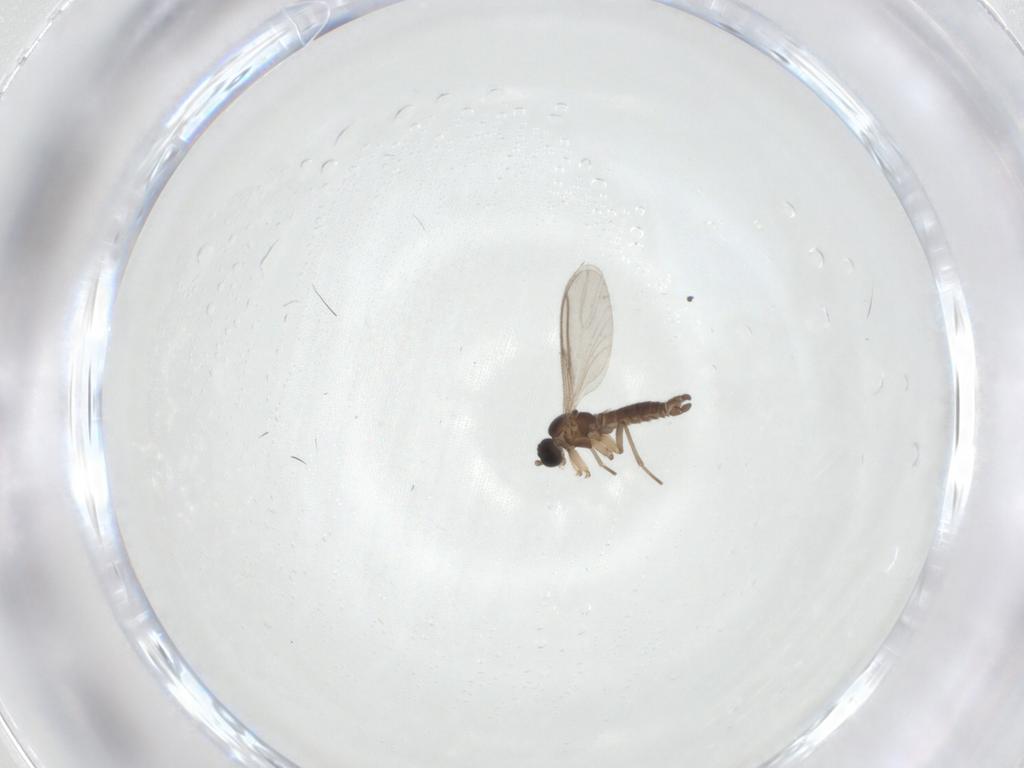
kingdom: Animalia
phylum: Arthropoda
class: Insecta
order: Diptera
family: Sciaridae
